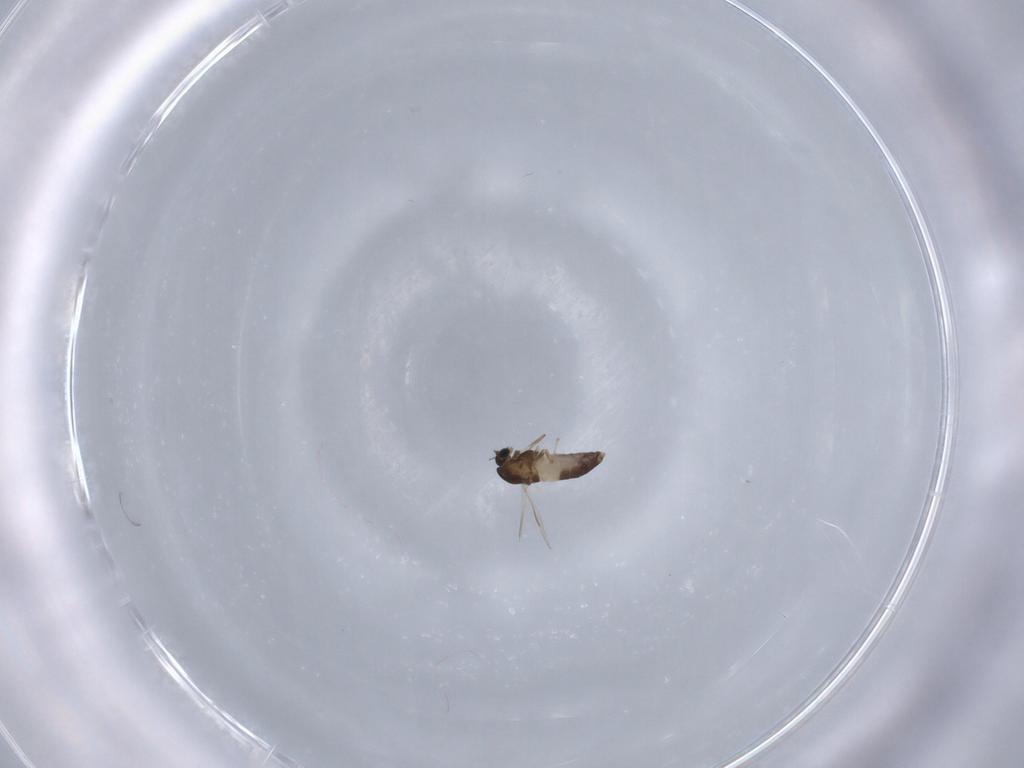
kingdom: Animalia
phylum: Arthropoda
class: Insecta
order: Diptera
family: Chironomidae
